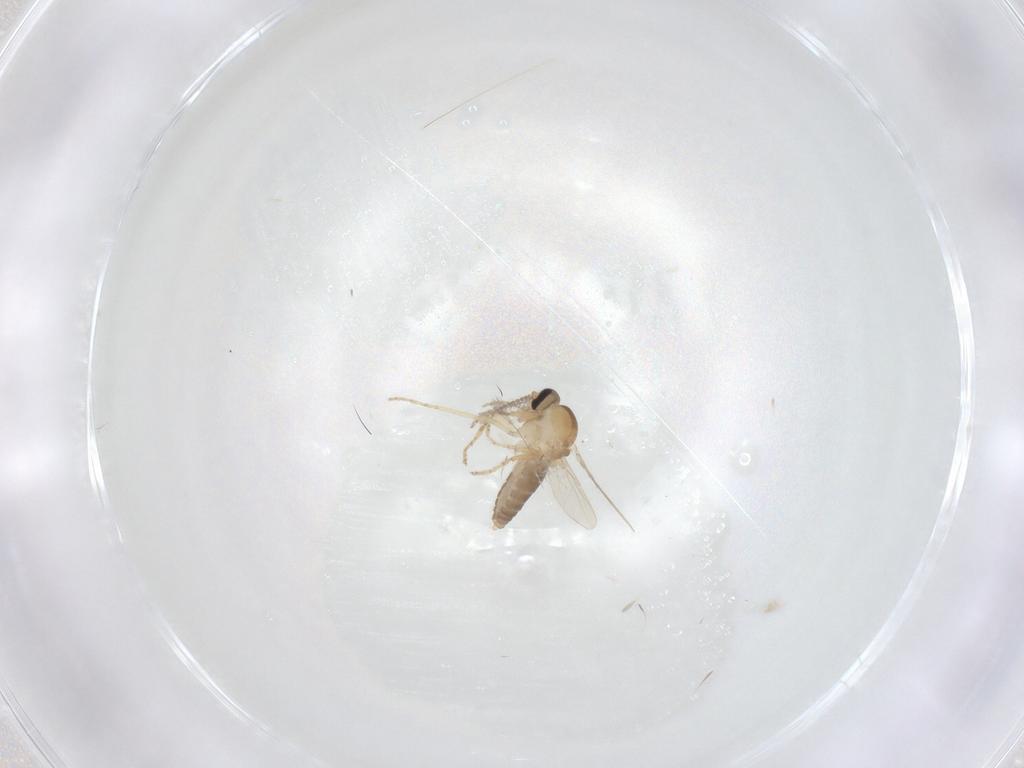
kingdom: Animalia
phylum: Arthropoda
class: Insecta
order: Diptera
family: Ceratopogonidae
